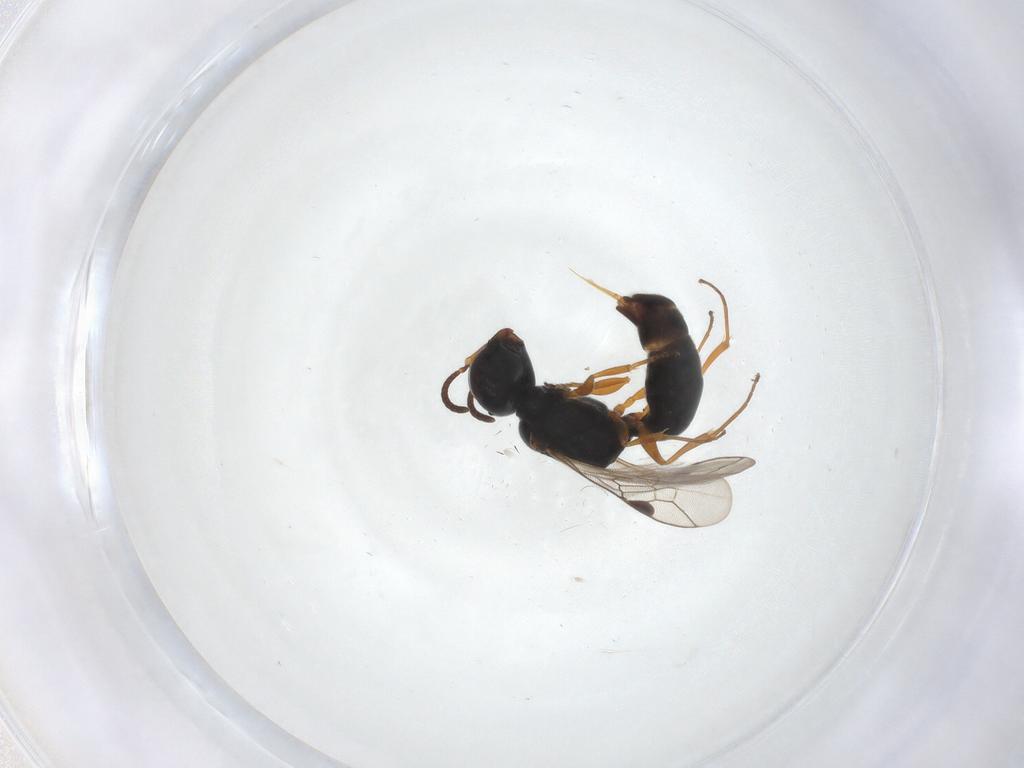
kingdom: Animalia
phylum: Arthropoda
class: Insecta
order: Hymenoptera
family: Crabronidae
